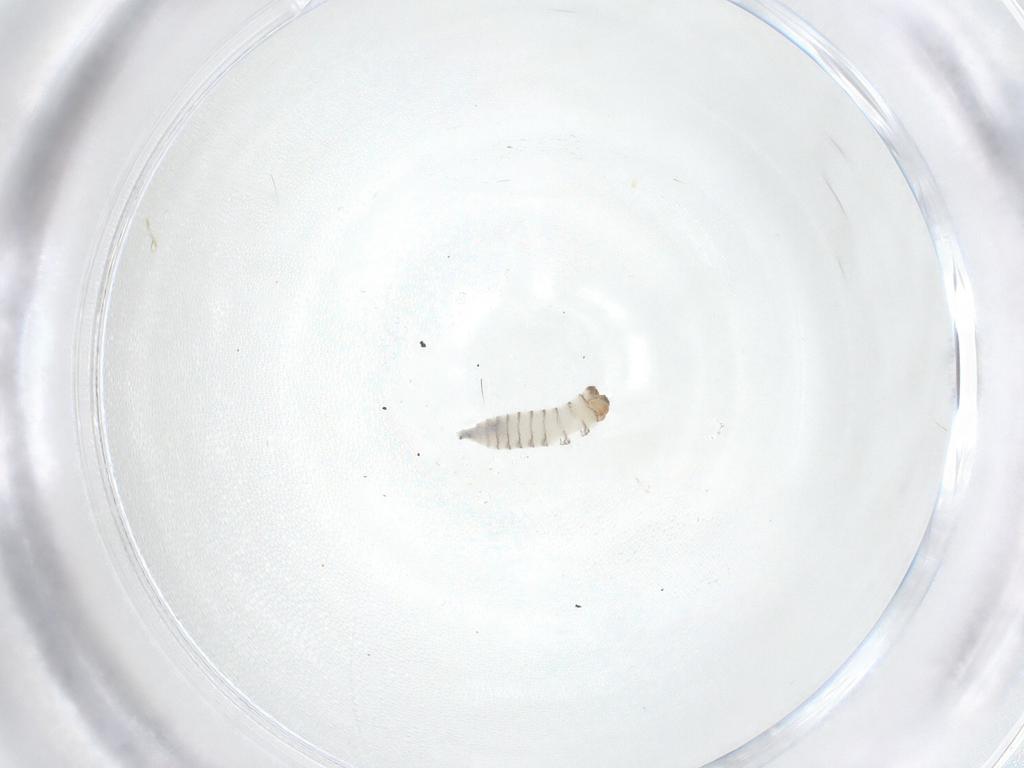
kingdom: Animalia
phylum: Arthropoda
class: Insecta
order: Diptera
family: Sarcophagidae
